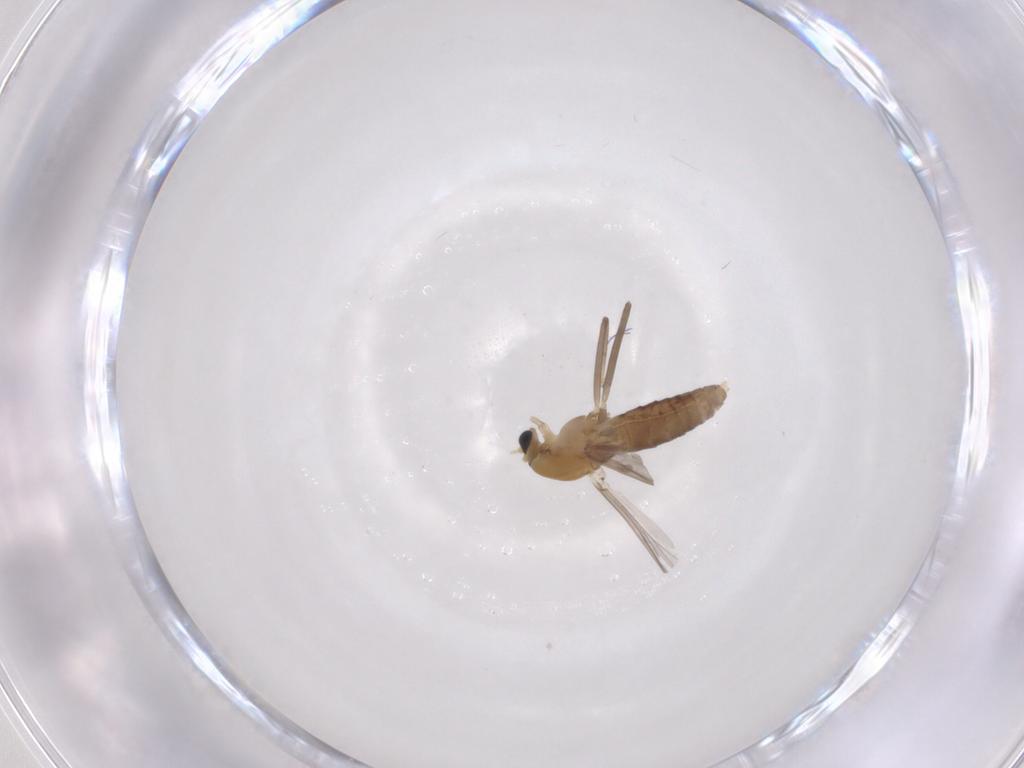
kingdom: Animalia
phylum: Arthropoda
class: Insecta
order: Diptera
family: Chironomidae
